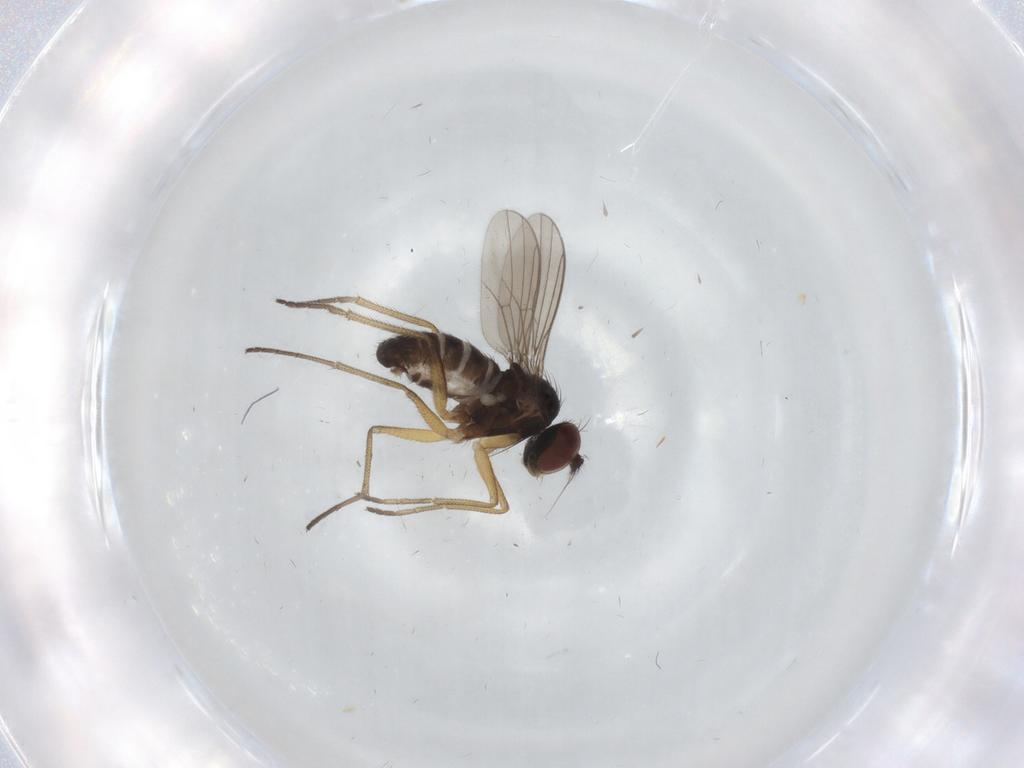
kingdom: Animalia
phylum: Arthropoda
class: Insecta
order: Diptera
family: Dolichopodidae
